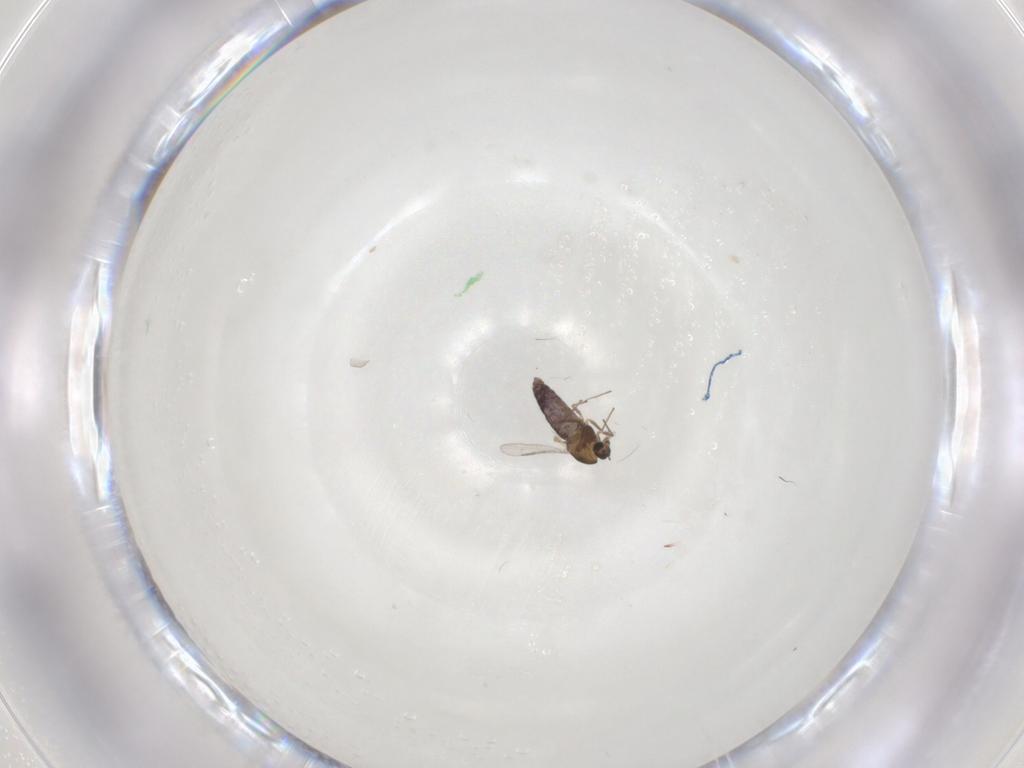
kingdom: Animalia
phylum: Arthropoda
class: Insecta
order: Diptera
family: Chironomidae
